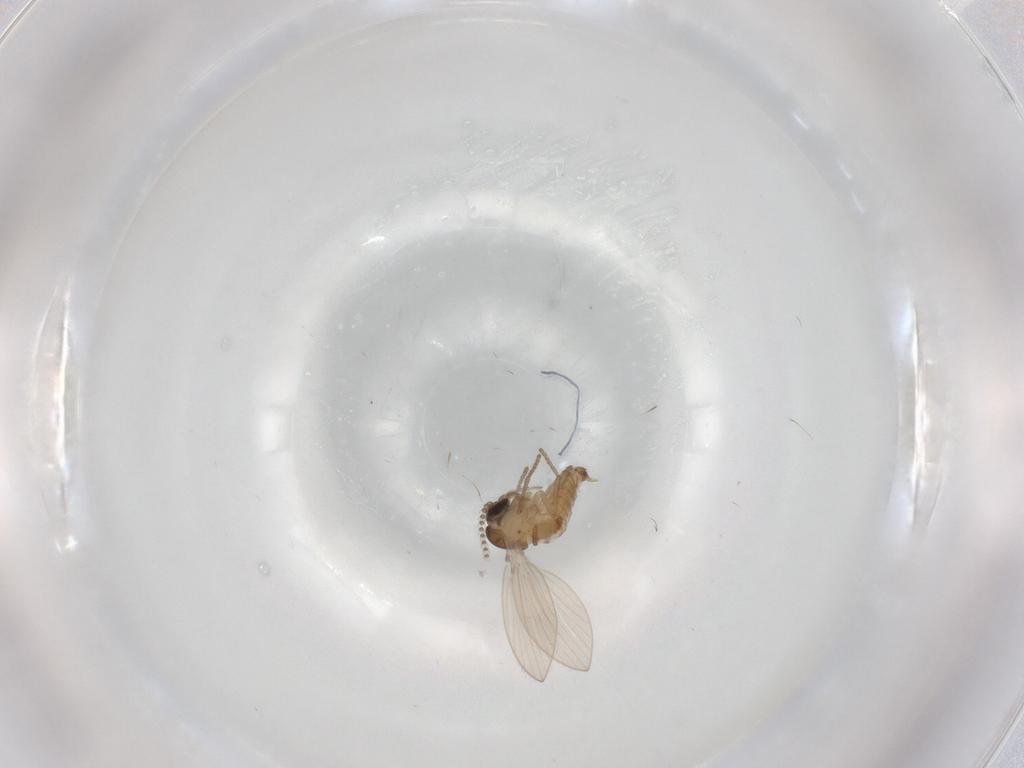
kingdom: Animalia
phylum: Arthropoda
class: Insecta
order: Diptera
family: Psychodidae
